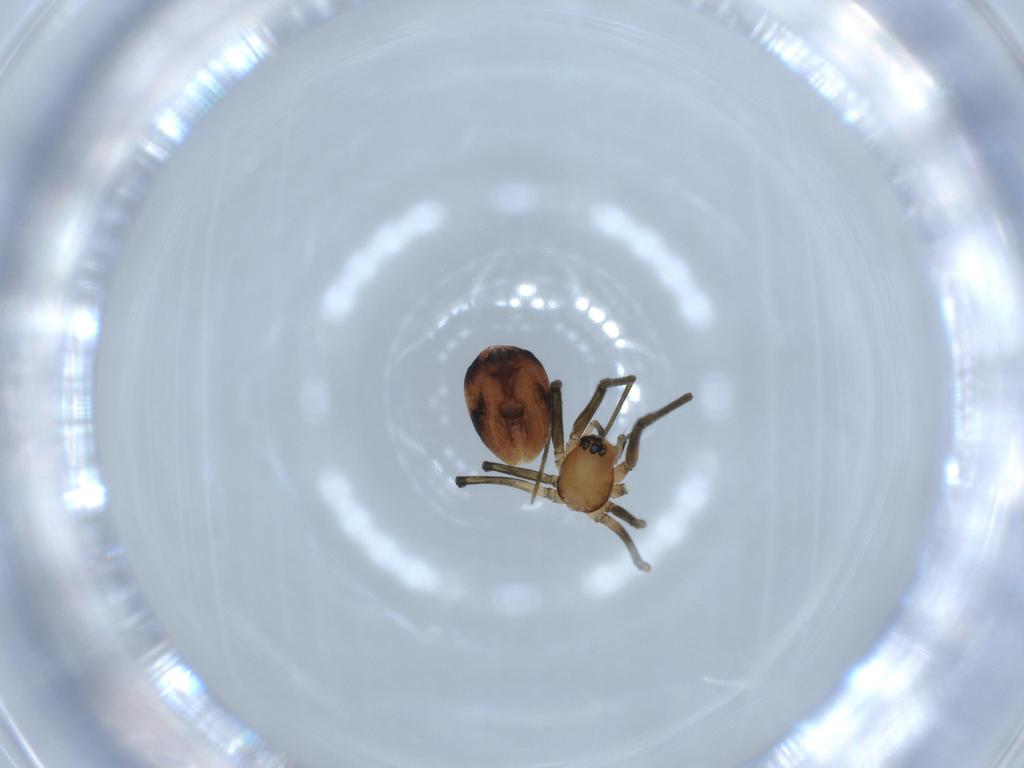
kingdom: Animalia
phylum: Arthropoda
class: Arachnida
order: Araneae
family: Linyphiidae
